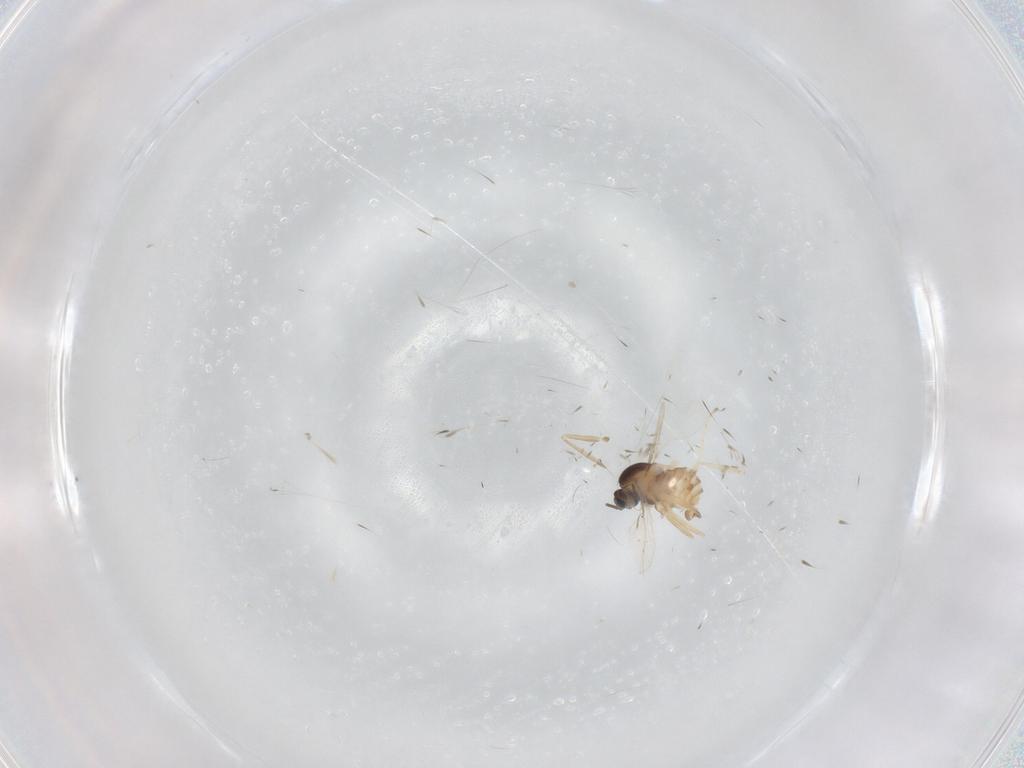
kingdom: Animalia
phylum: Arthropoda
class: Insecta
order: Diptera
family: Cecidomyiidae
